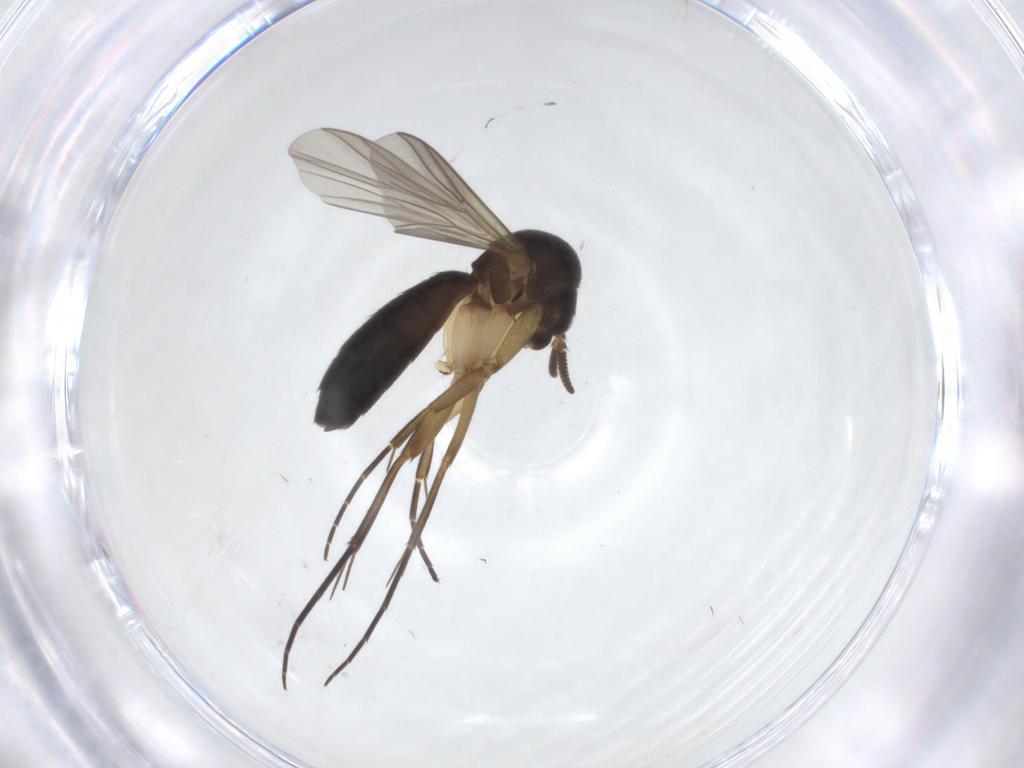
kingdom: Animalia
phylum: Arthropoda
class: Insecta
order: Diptera
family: Mycetophilidae
